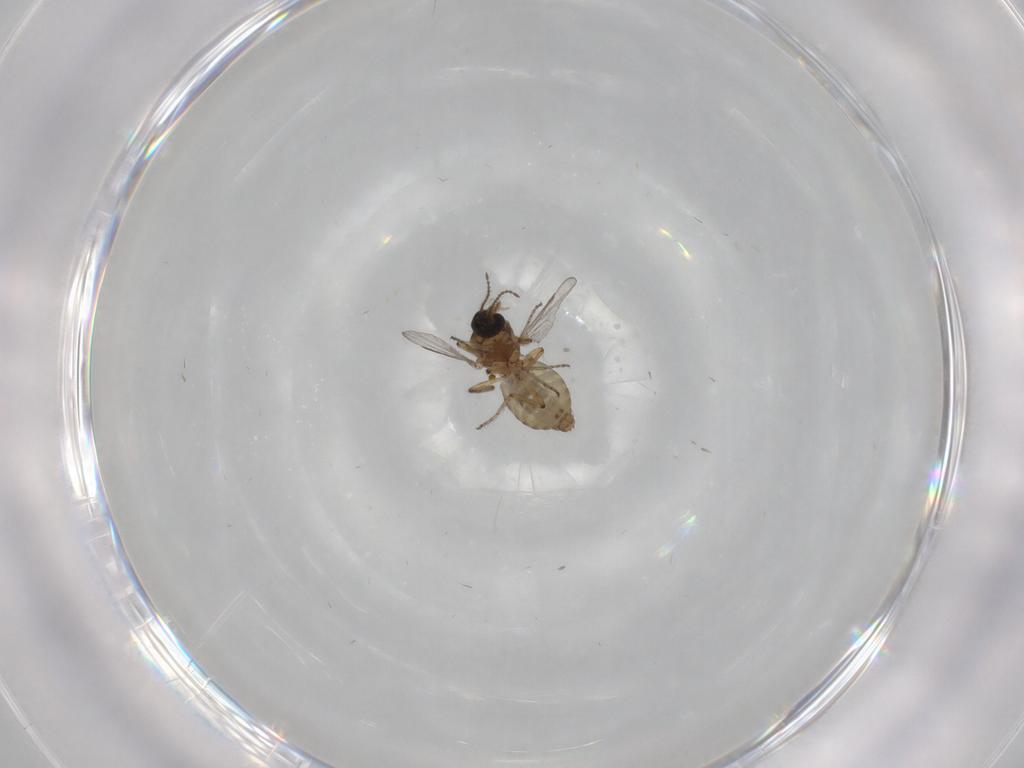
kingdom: Animalia
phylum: Arthropoda
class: Insecta
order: Diptera
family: Ceratopogonidae
